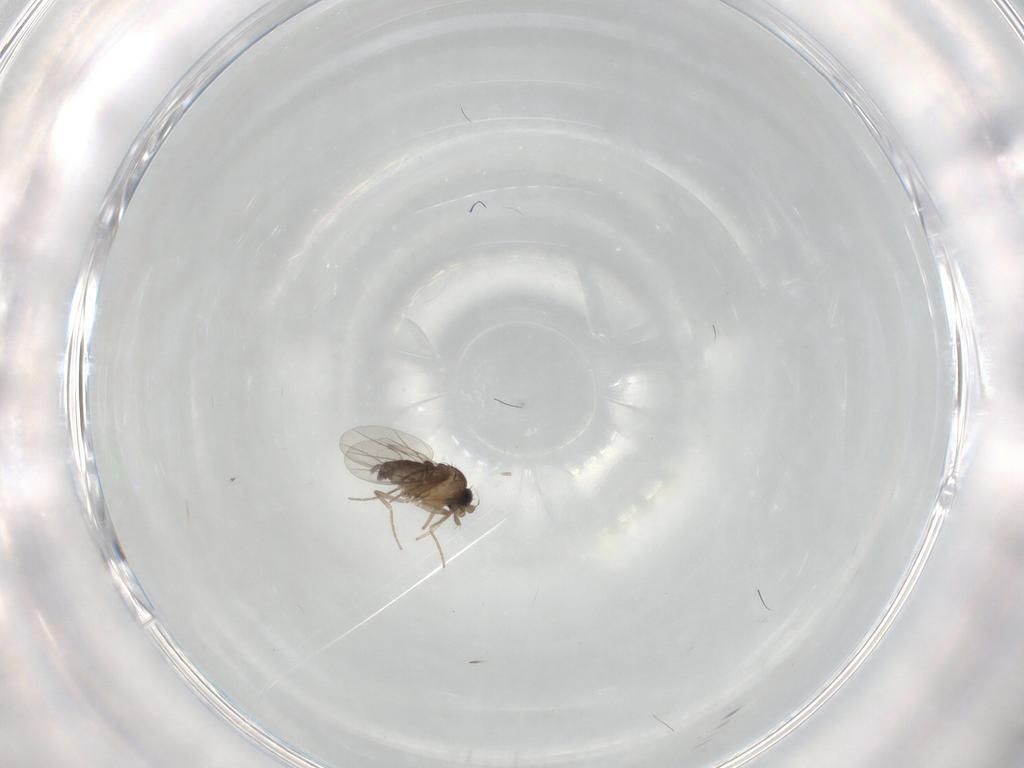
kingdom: Animalia
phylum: Arthropoda
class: Insecta
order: Diptera
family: Tabanidae
